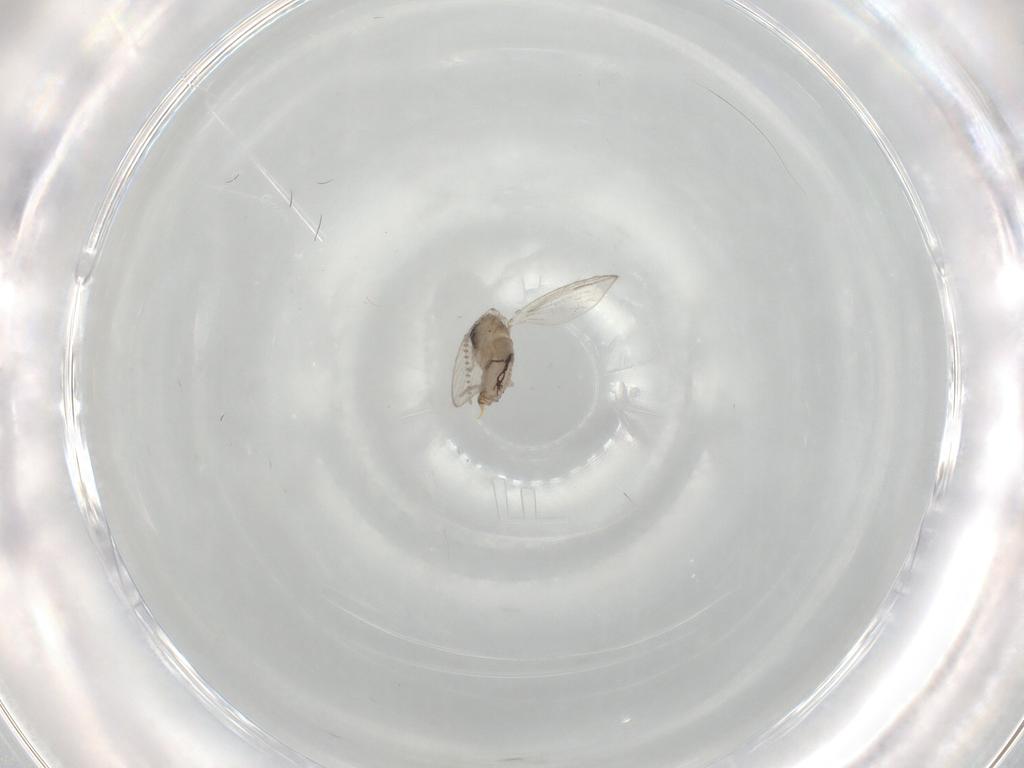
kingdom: Animalia
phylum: Arthropoda
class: Insecta
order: Diptera
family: Psychodidae
